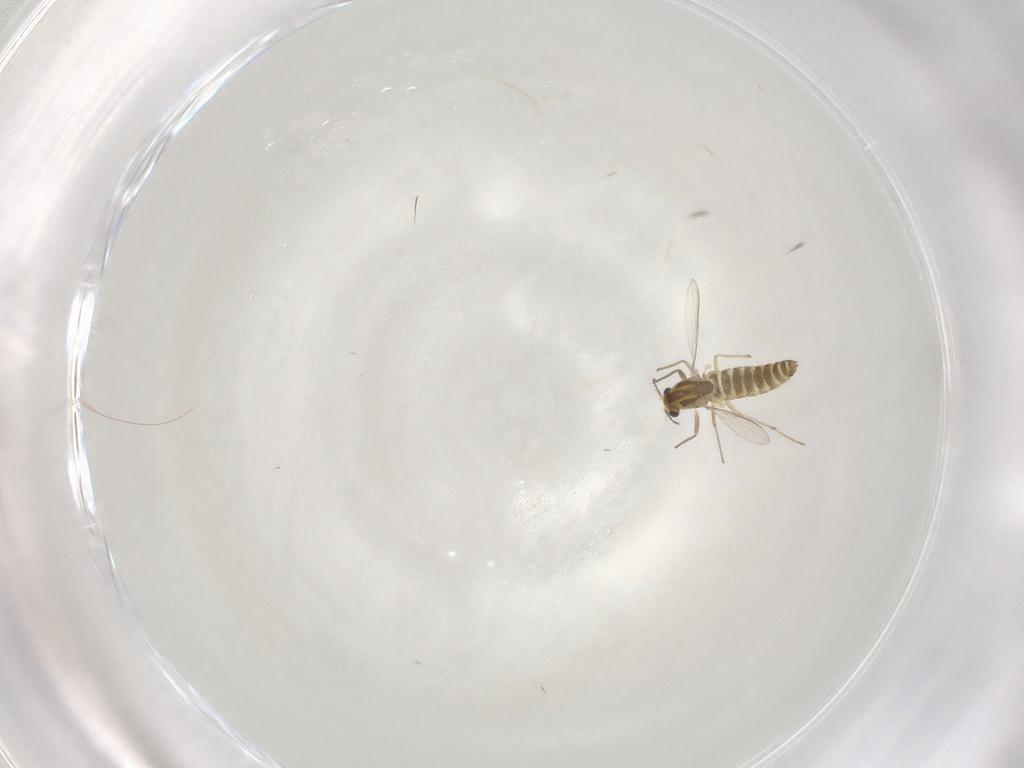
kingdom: Animalia
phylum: Arthropoda
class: Insecta
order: Diptera
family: Chironomidae
